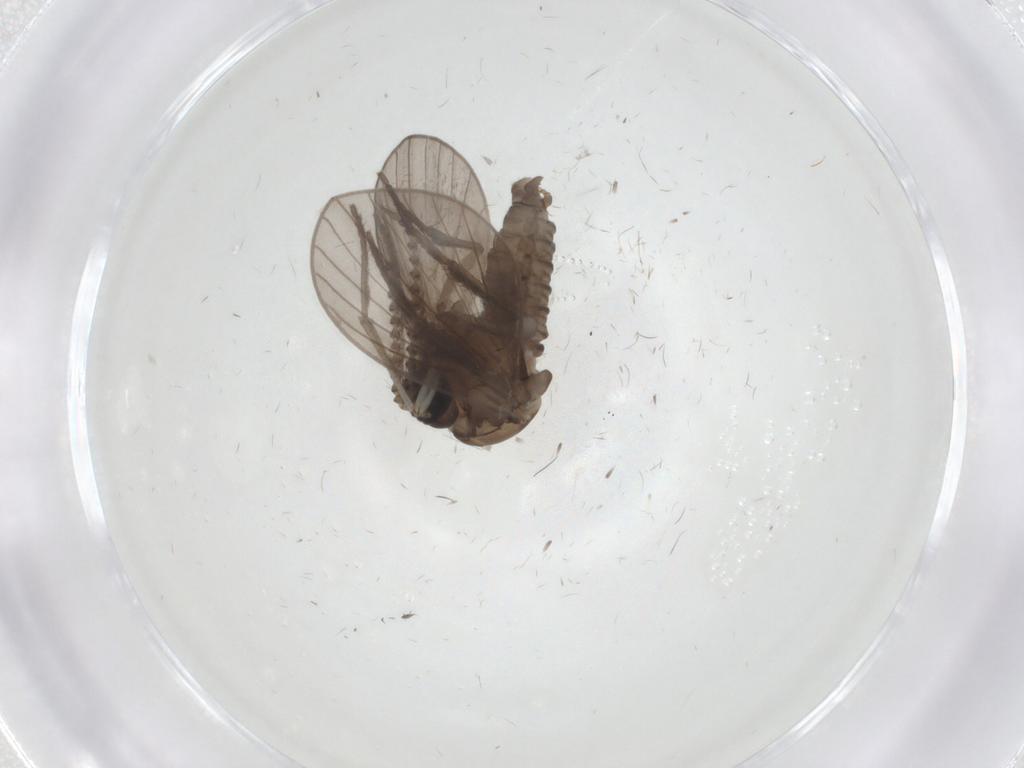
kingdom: Animalia
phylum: Arthropoda
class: Insecta
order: Diptera
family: Cecidomyiidae
